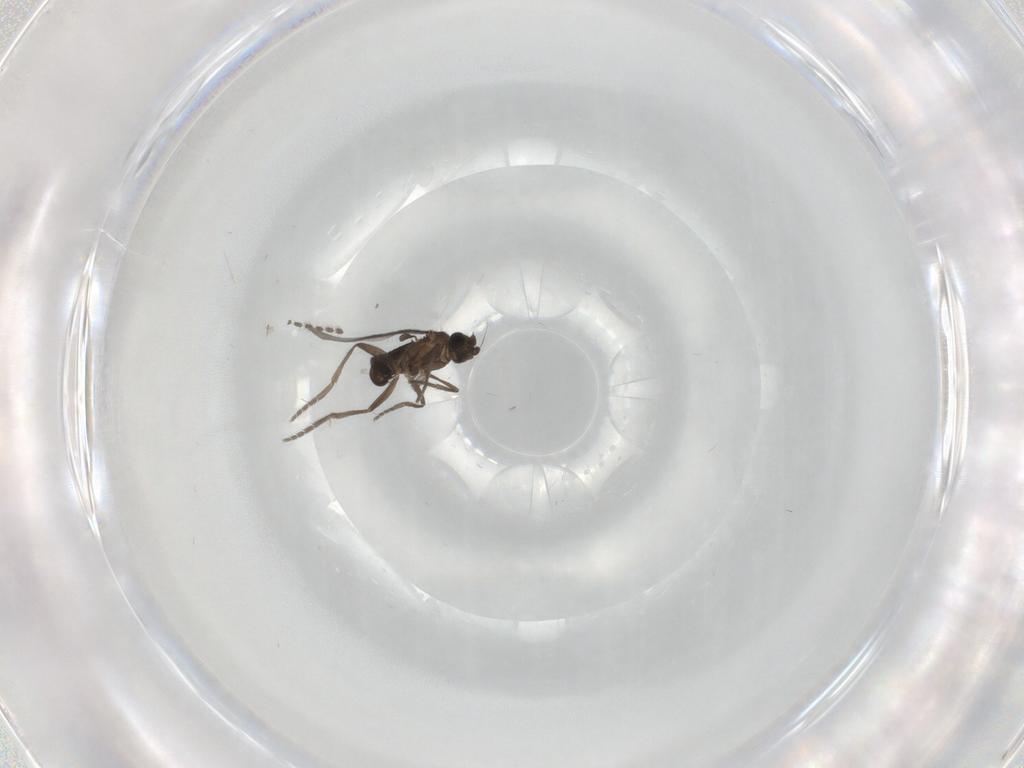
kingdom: Animalia
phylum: Arthropoda
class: Insecta
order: Diptera
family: Phoridae
